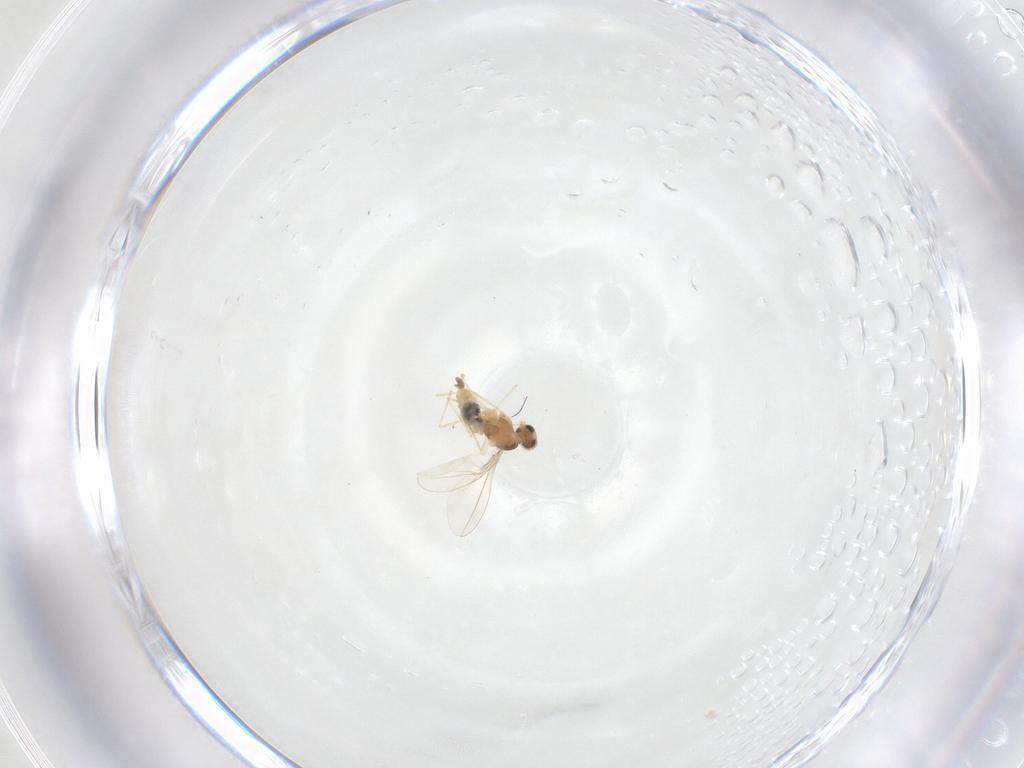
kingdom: Animalia
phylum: Arthropoda
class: Insecta
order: Diptera
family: Cecidomyiidae
